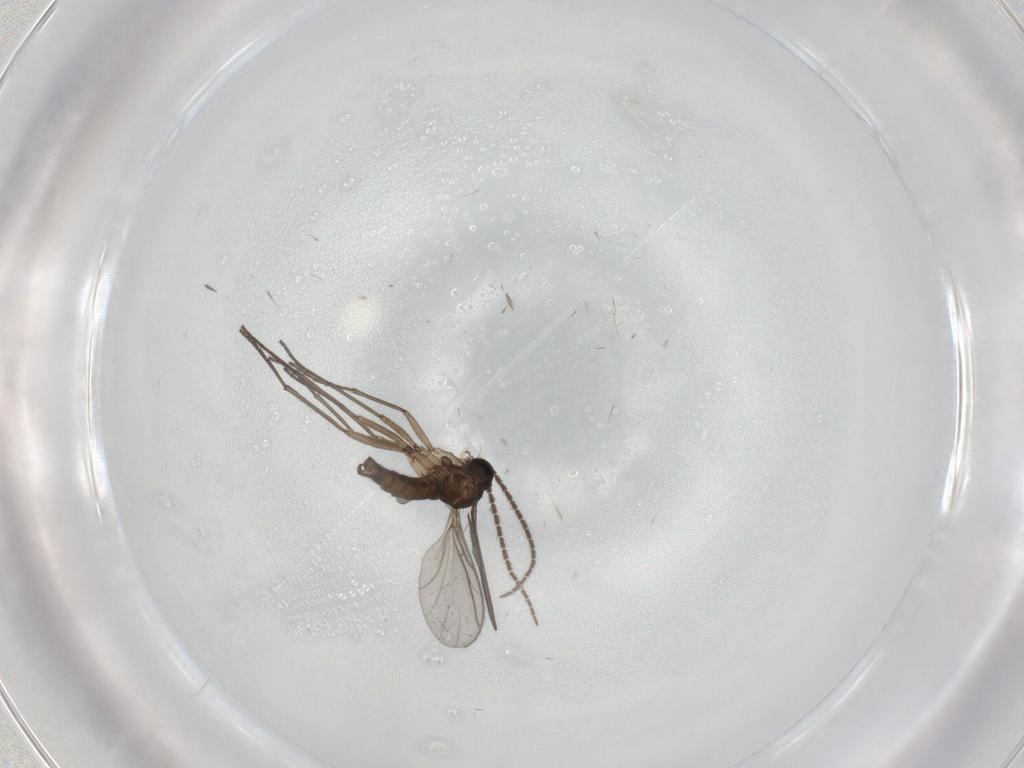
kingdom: Animalia
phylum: Arthropoda
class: Insecta
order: Diptera
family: Sciaridae
